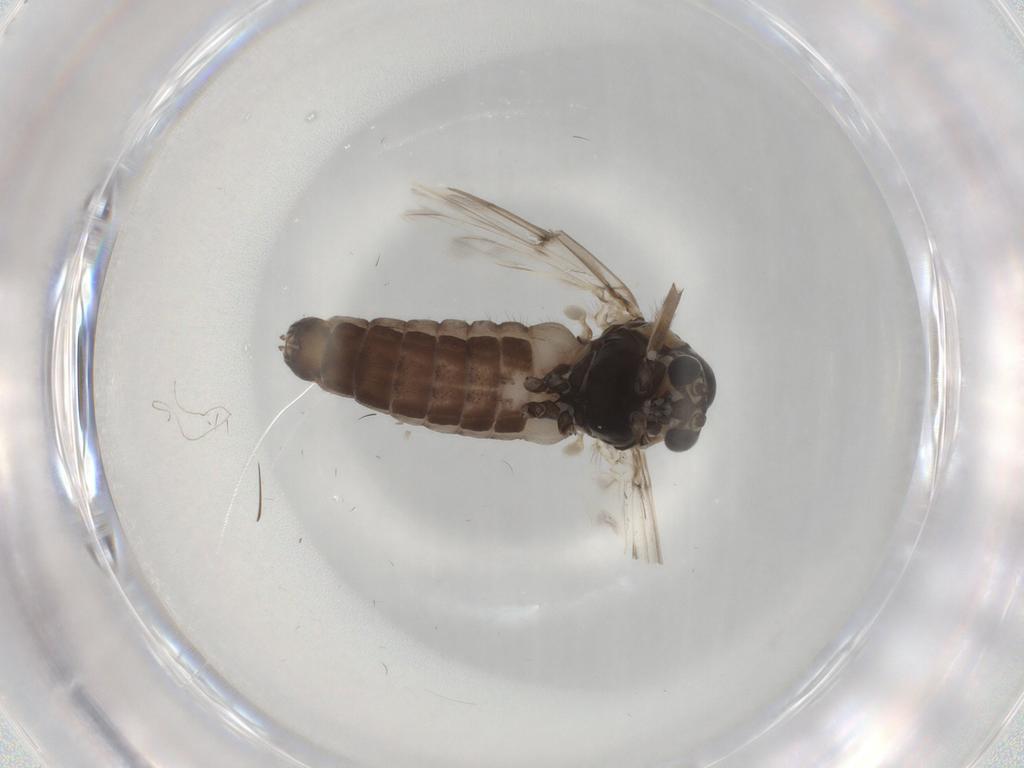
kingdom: Animalia
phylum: Arthropoda
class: Insecta
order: Diptera
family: Chironomidae
